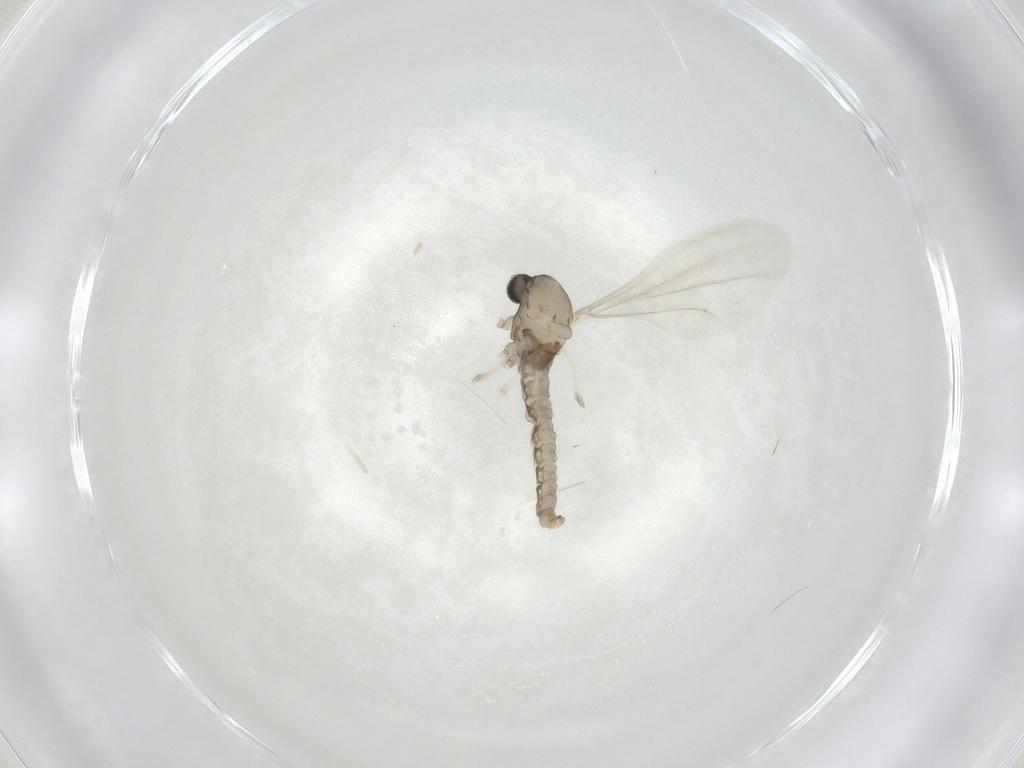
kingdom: Animalia
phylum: Arthropoda
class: Insecta
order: Diptera
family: Cecidomyiidae
